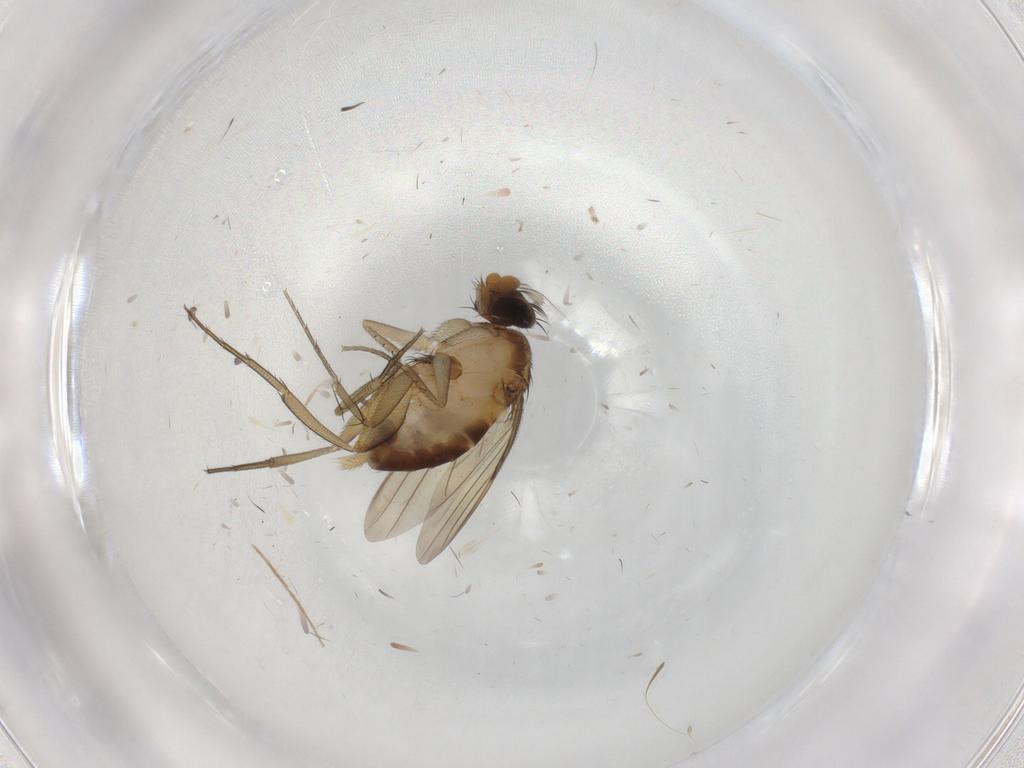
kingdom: Animalia
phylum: Arthropoda
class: Insecta
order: Diptera
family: Phoridae
